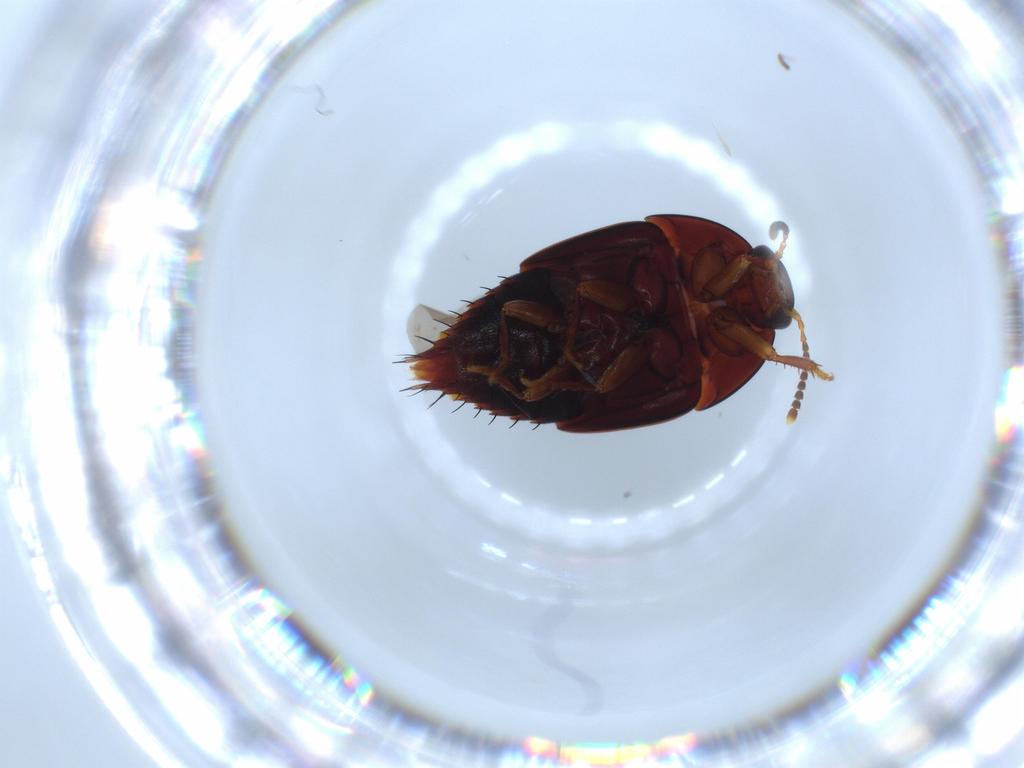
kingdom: Animalia
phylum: Arthropoda
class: Insecta
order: Coleoptera
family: Staphylinidae
